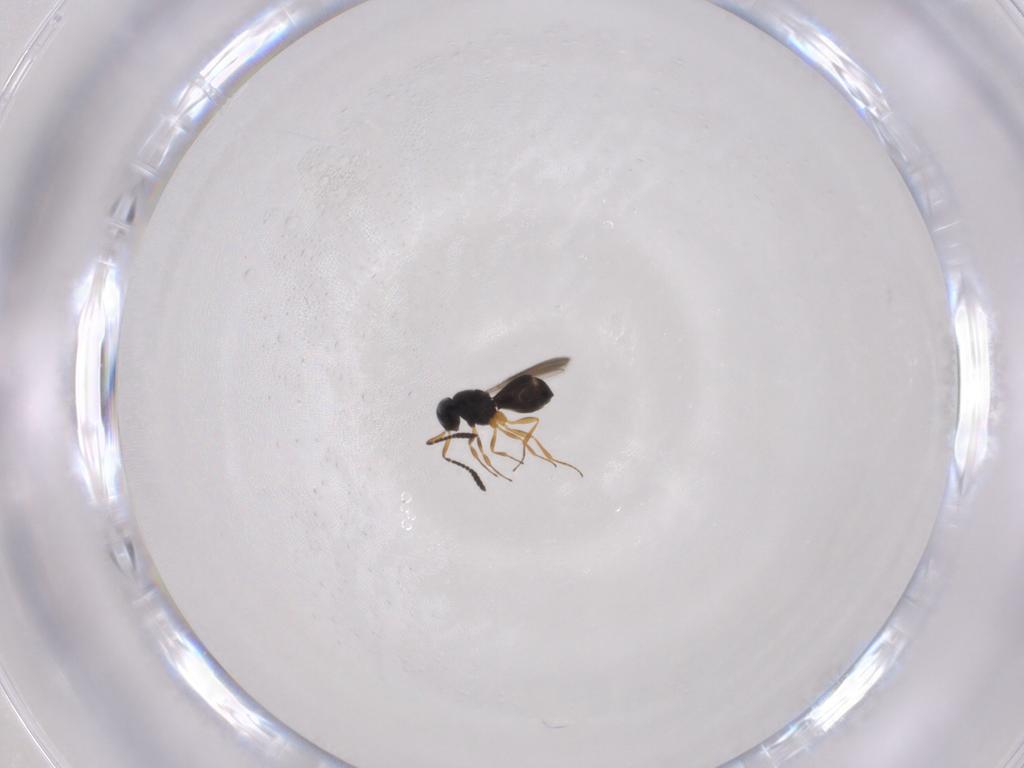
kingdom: Animalia
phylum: Arthropoda
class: Insecta
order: Hymenoptera
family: Scelionidae
